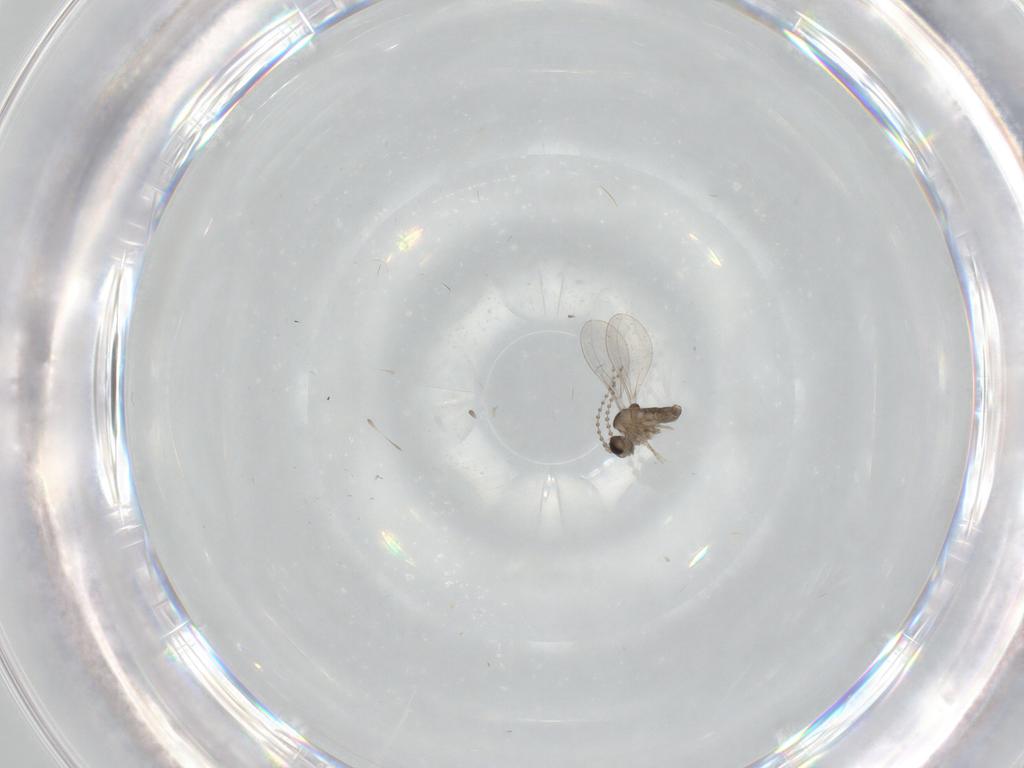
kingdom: Animalia
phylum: Arthropoda
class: Insecta
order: Diptera
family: Cecidomyiidae
